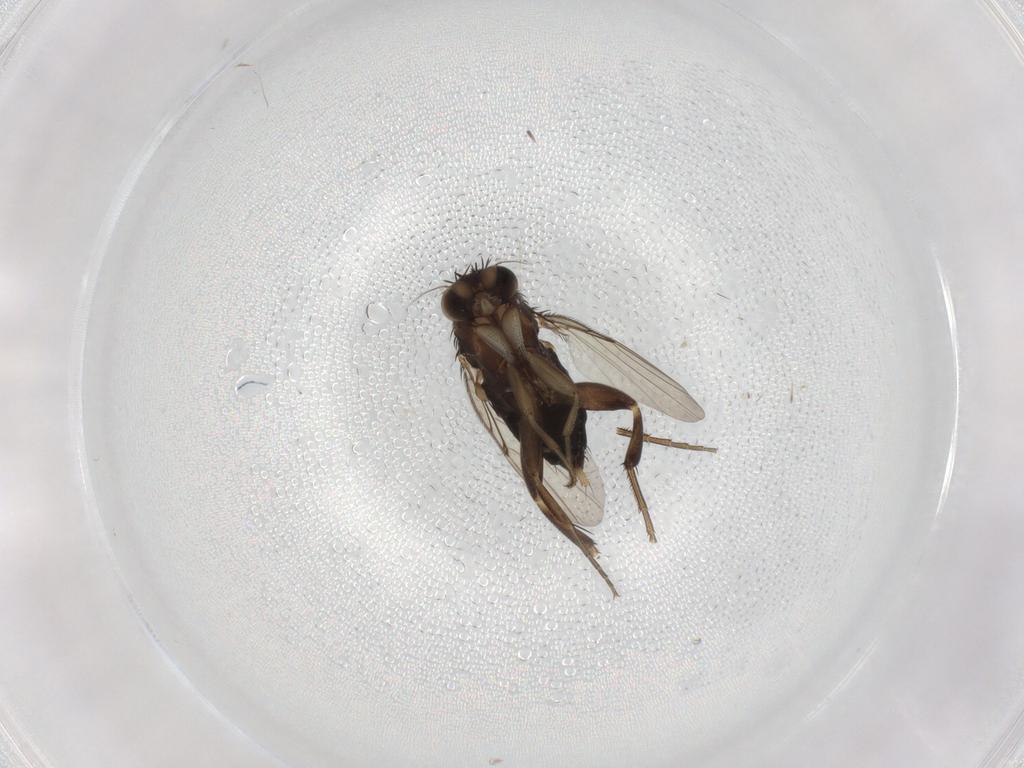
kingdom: Animalia
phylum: Arthropoda
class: Insecta
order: Diptera
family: Phoridae
